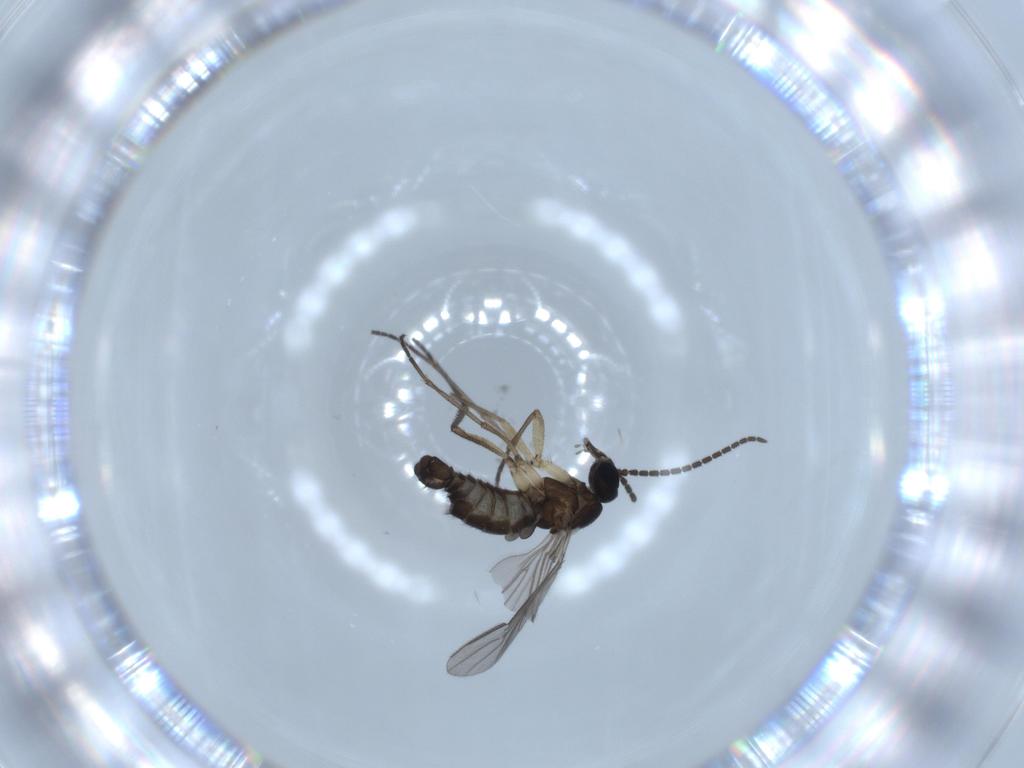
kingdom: Animalia
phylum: Arthropoda
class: Insecta
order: Diptera
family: Sciaridae
